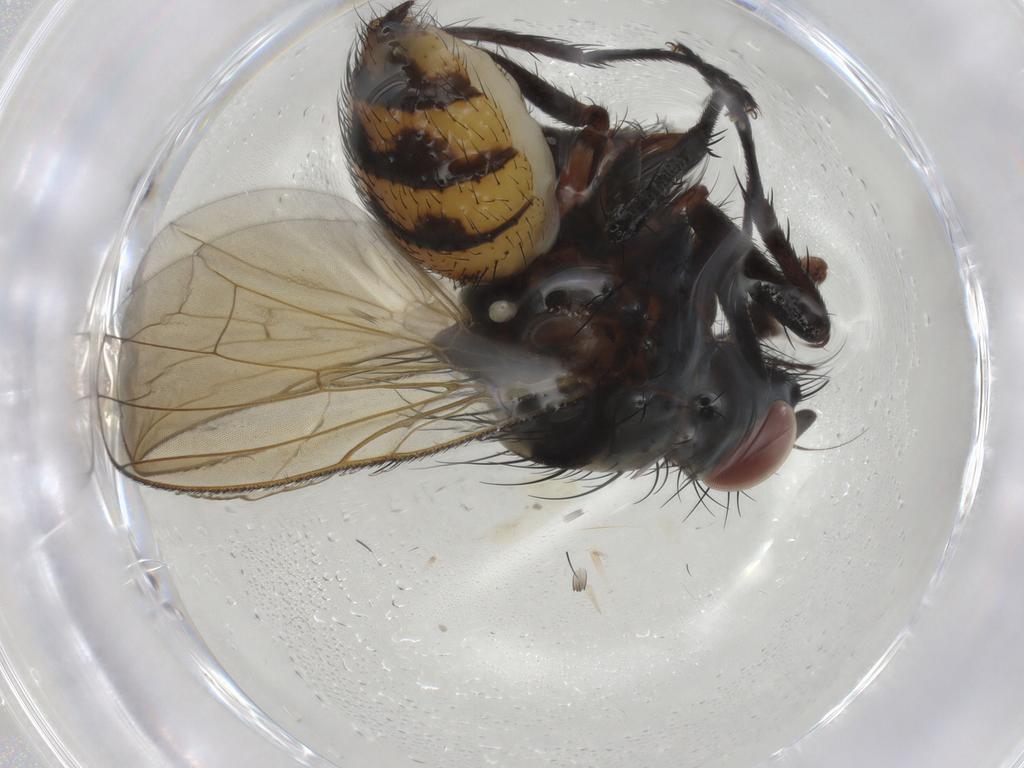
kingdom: Animalia
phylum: Arthropoda
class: Insecta
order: Diptera
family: Anthomyiidae
